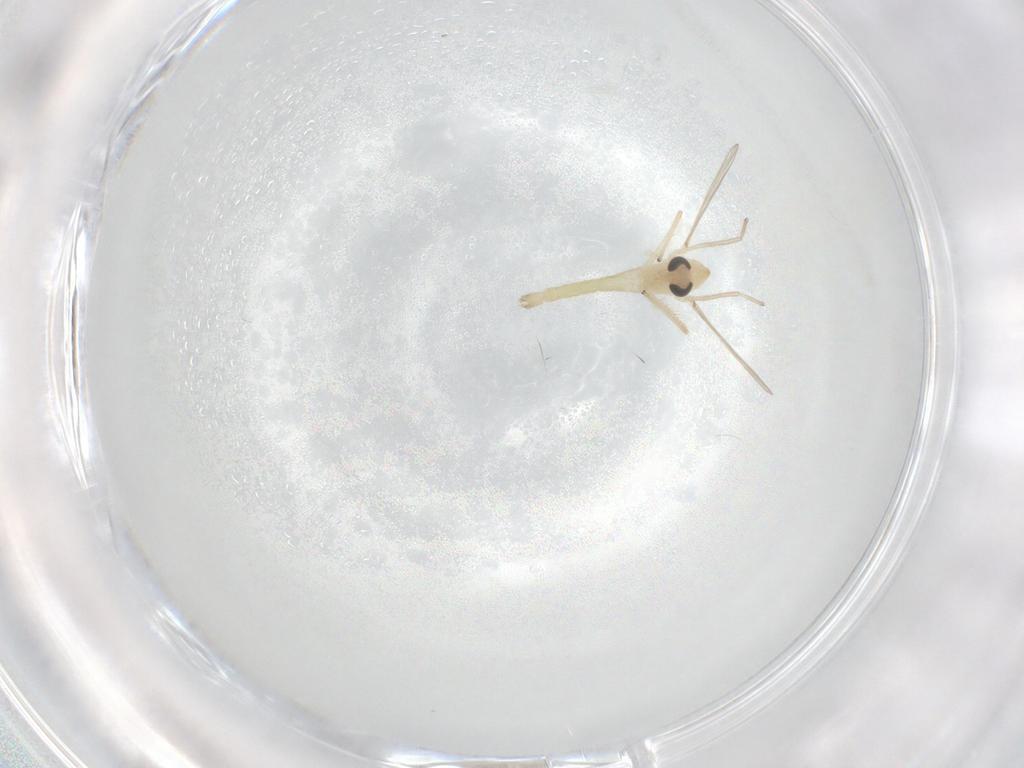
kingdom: Animalia
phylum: Arthropoda
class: Insecta
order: Diptera
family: Chironomidae
